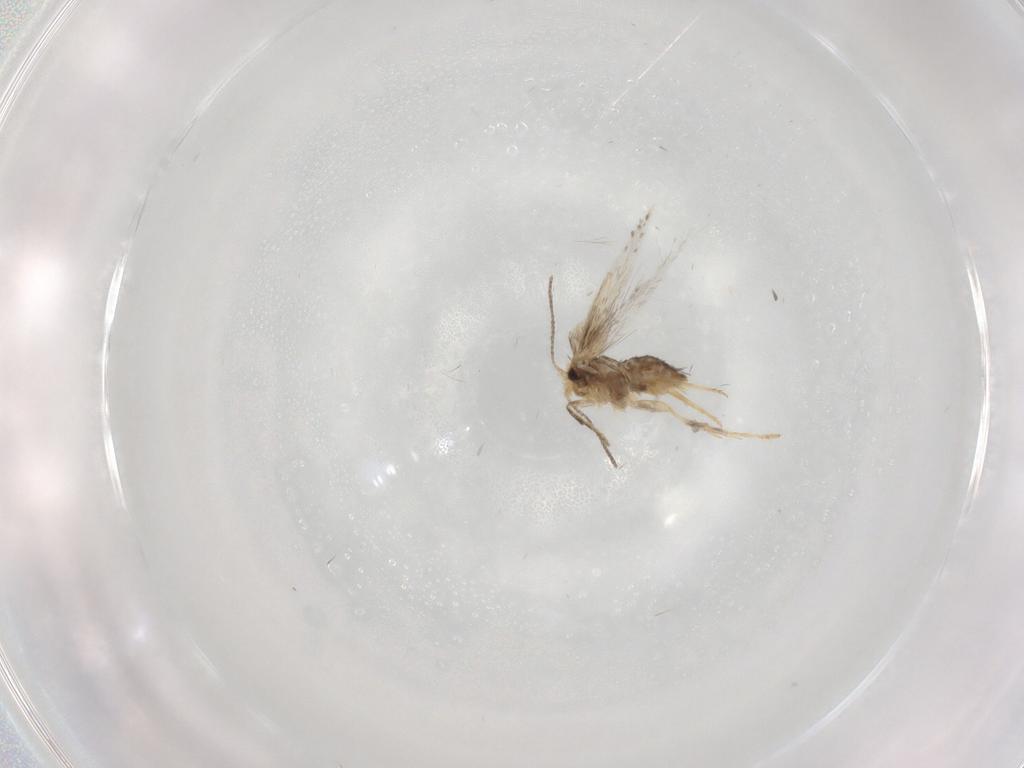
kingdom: Animalia
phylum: Arthropoda
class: Insecta
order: Lepidoptera
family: Nepticulidae
